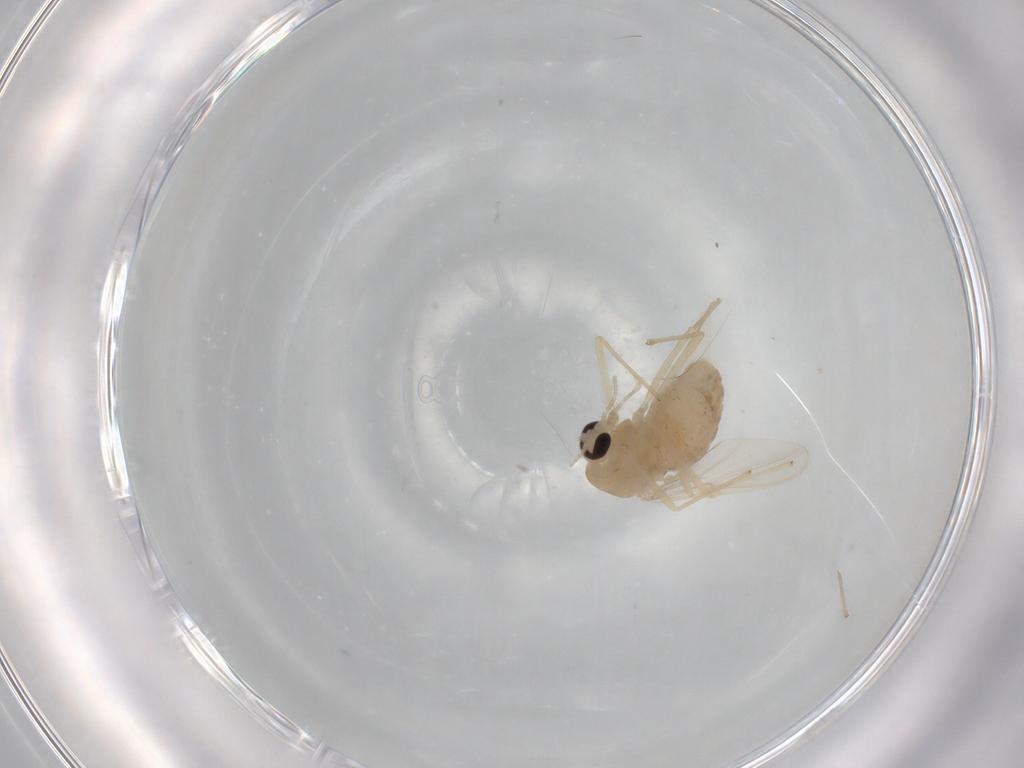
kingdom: Animalia
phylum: Arthropoda
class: Insecta
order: Diptera
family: Chironomidae
